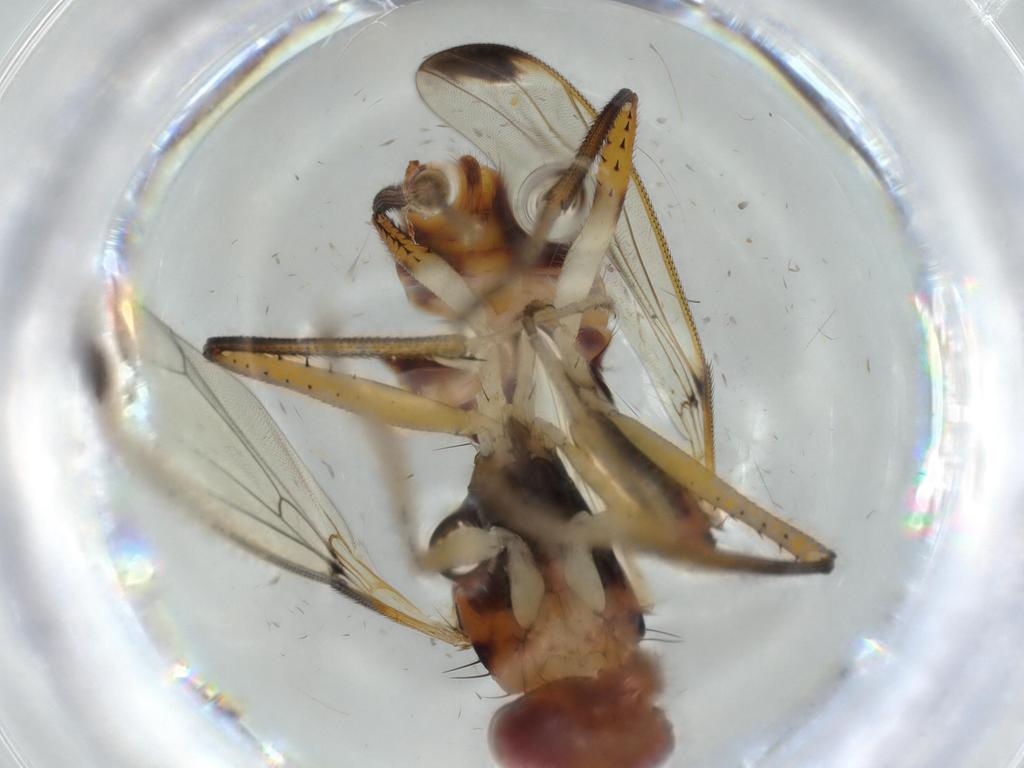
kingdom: Animalia
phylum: Arthropoda
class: Insecta
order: Diptera
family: Richardiidae
